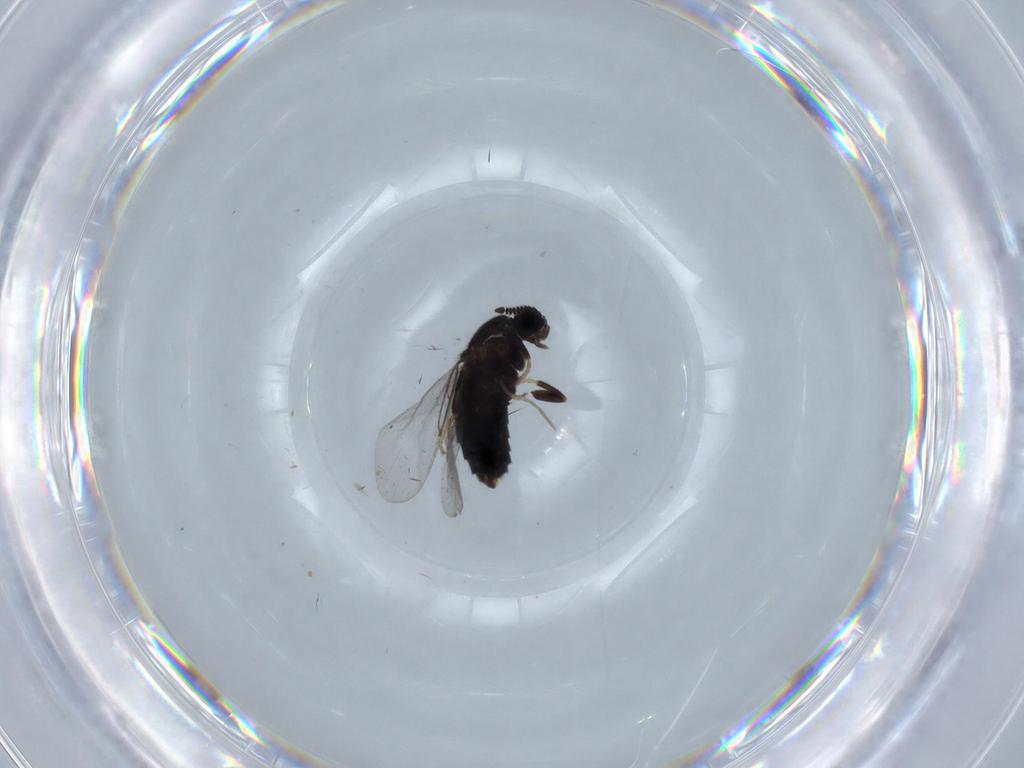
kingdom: Animalia
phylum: Arthropoda
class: Insecta
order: Diptera
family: Scatopsidae
